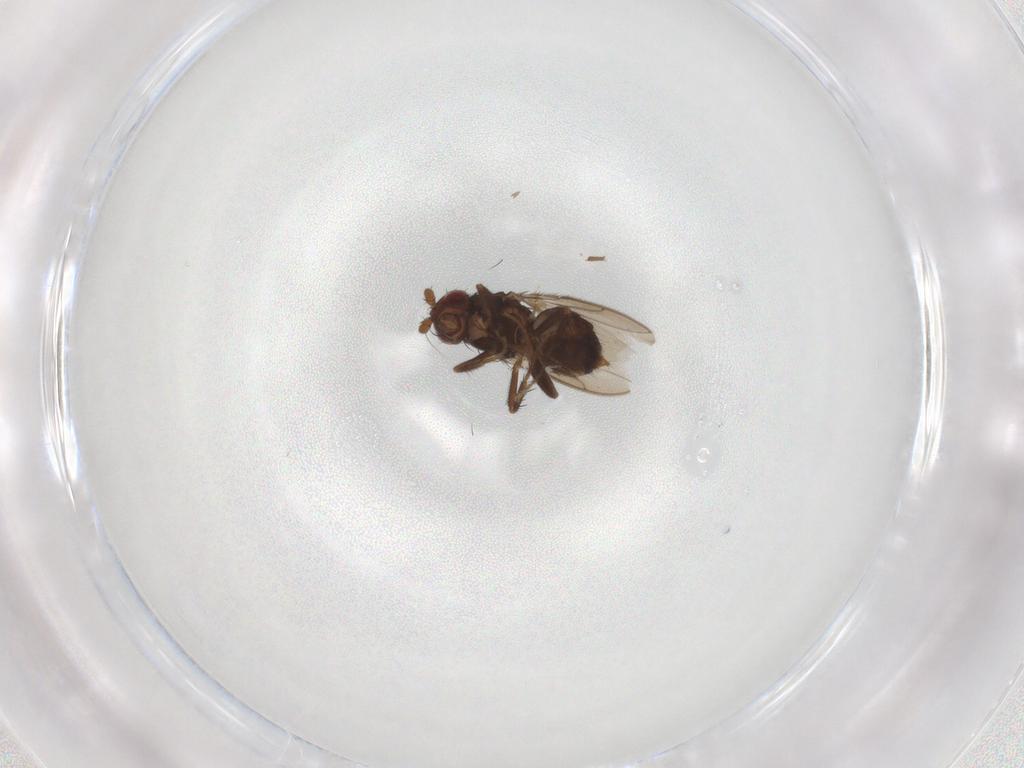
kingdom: Animalia
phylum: Arthropoda
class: Insecta
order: Diptera
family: Sphaeroceridae
